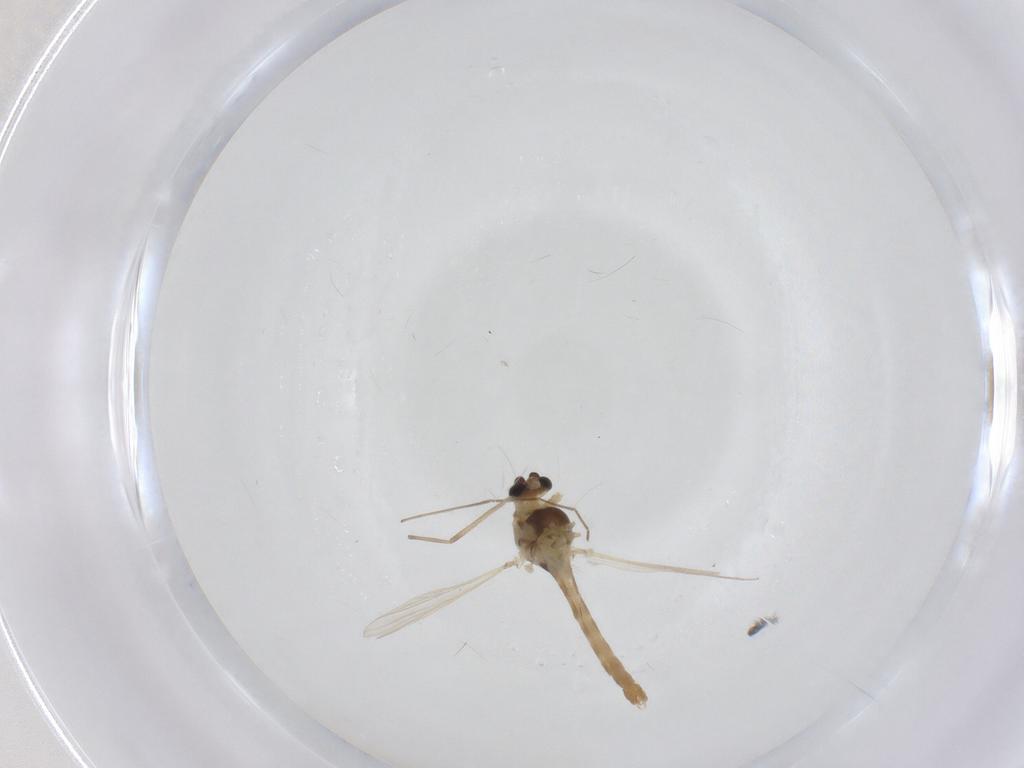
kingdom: Animalia
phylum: Arthropoda
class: Insecta
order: Diptera
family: Chironomidae
